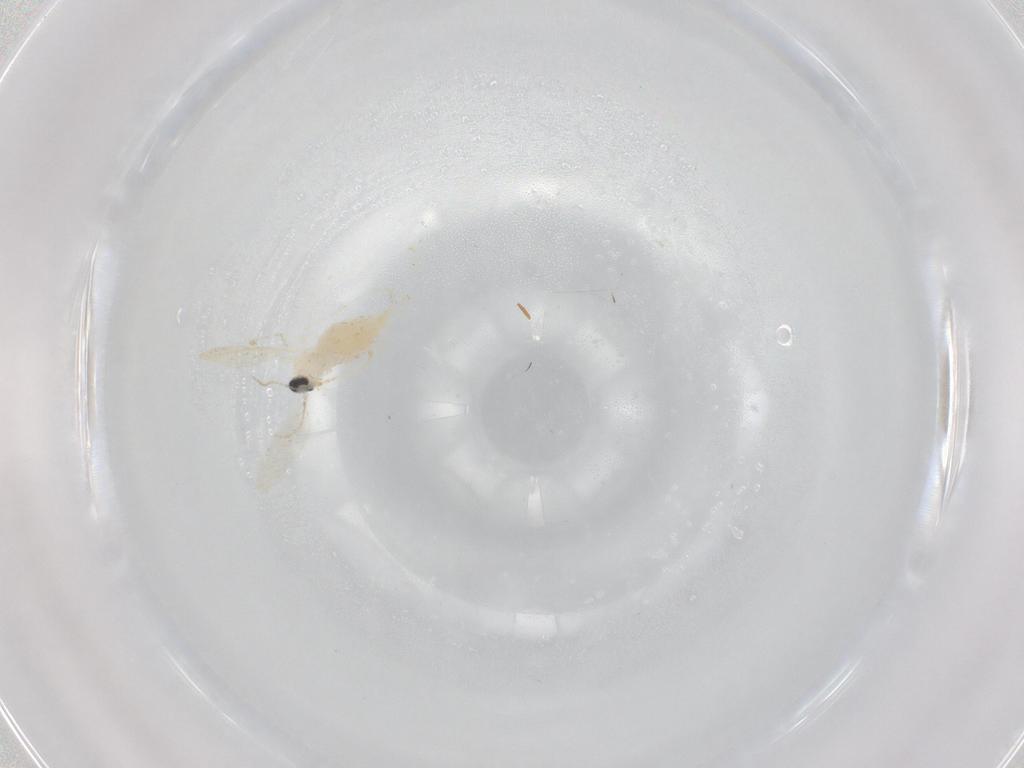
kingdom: Animalia
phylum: Arthropoda
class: Insecta
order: Diptera
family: Cecidomyiidae
